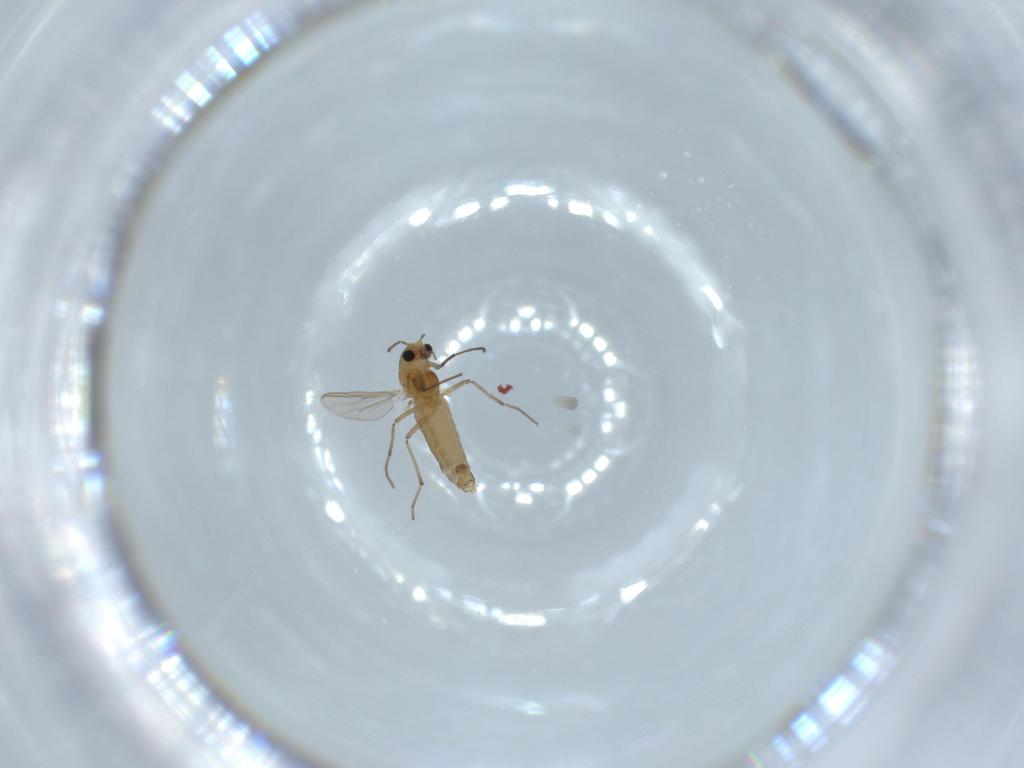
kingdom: Animalia
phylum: Arthropoda
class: Insecta
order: Diptera
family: Chironomidae
